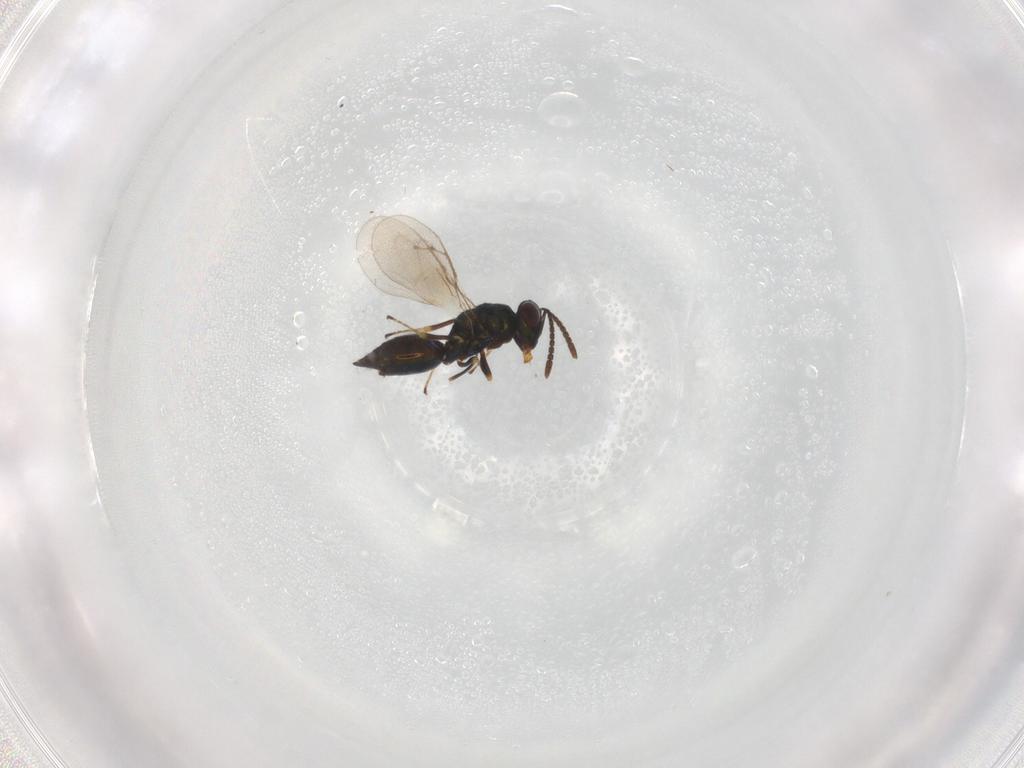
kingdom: Animalia
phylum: Arthropoda
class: Insecta
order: Hymenoptera
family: Pteromalidae
